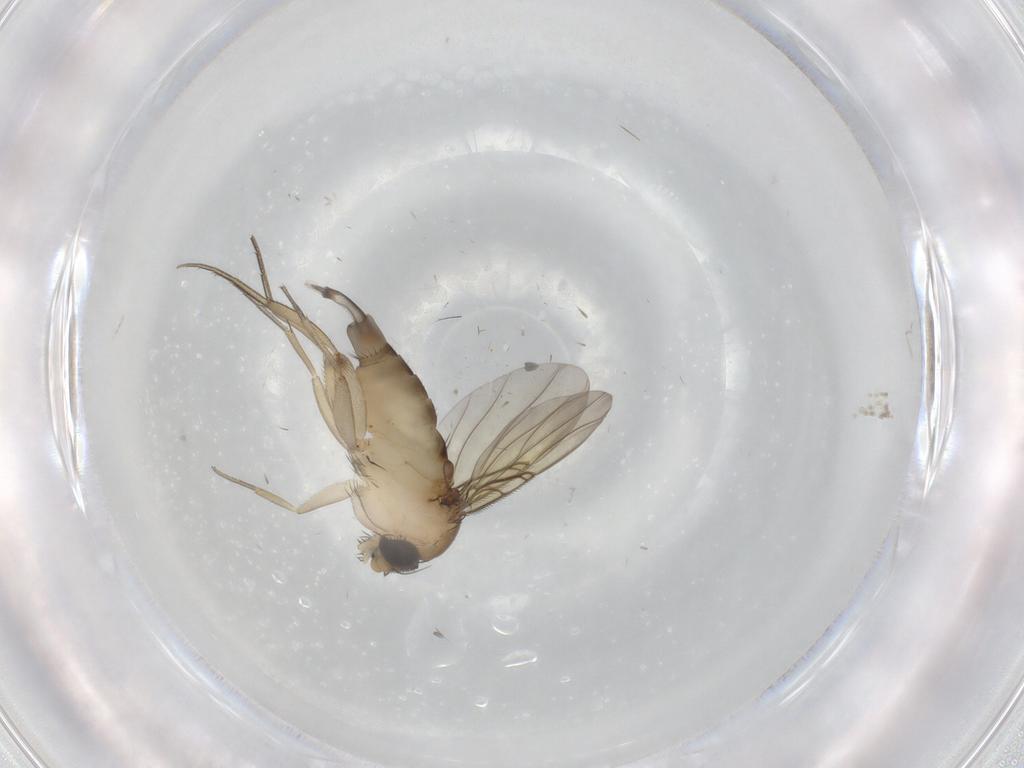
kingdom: Animalia
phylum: Arthropoda
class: Insecta
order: Diptera
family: Phoridae
